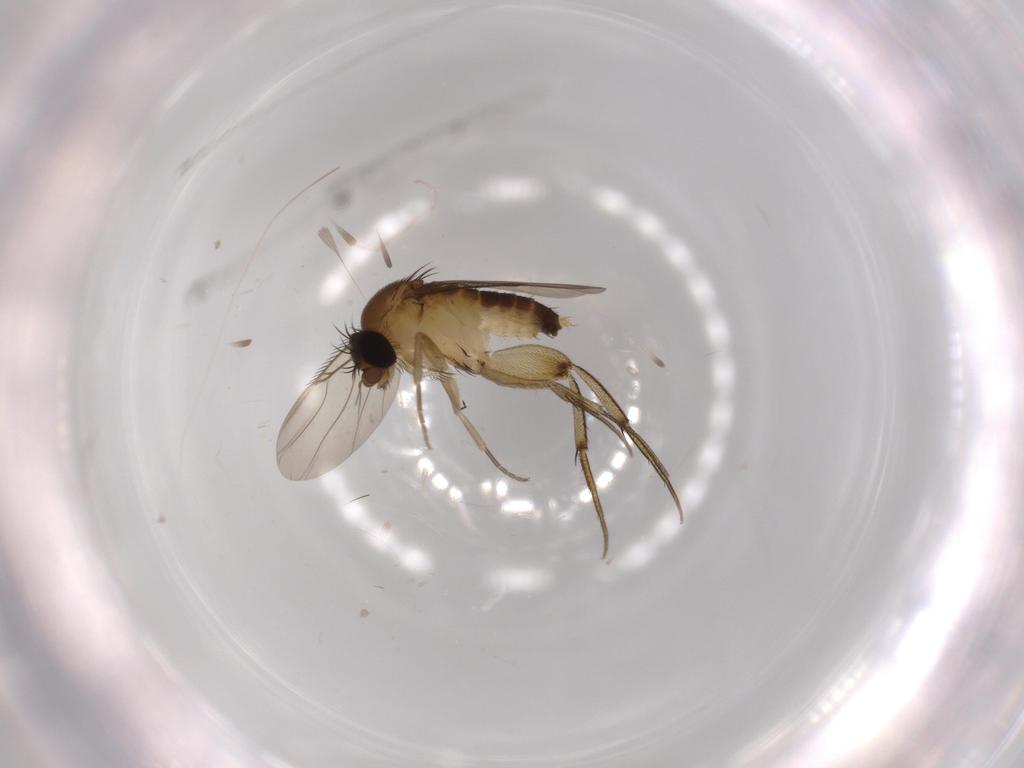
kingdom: Animalia
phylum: Arthropoda
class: Insecta
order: Diptera
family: Phoridae
